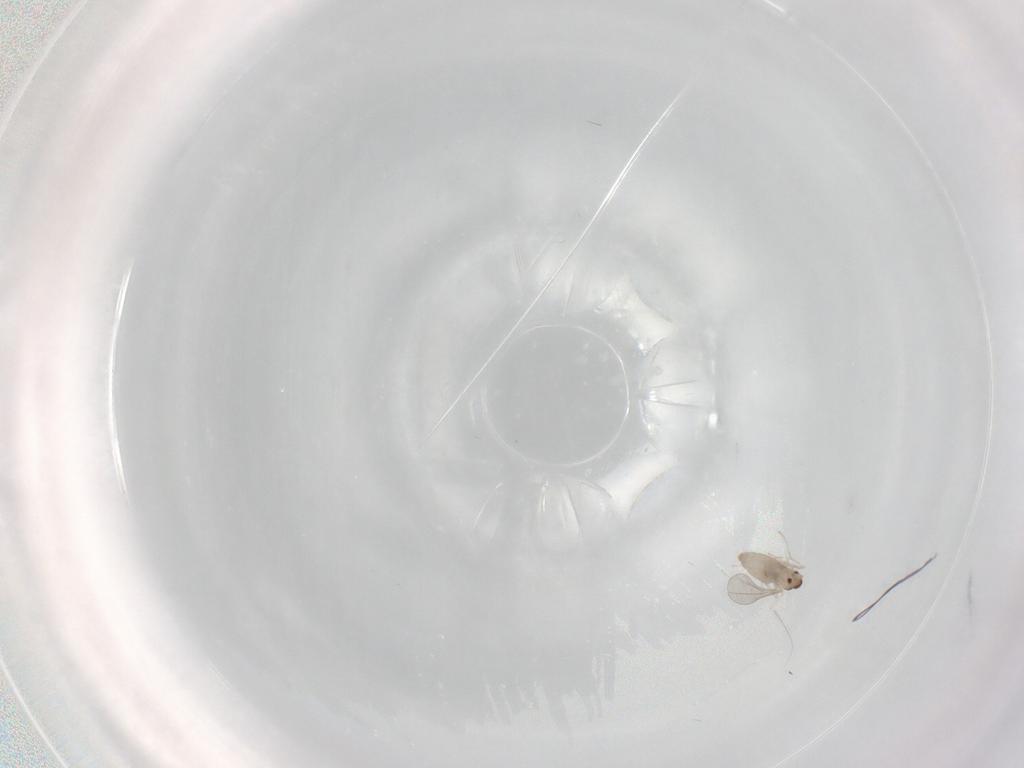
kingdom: Animalia
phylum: Arthropoda
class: Insecta
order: Diptera
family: Cecidomyiidae
